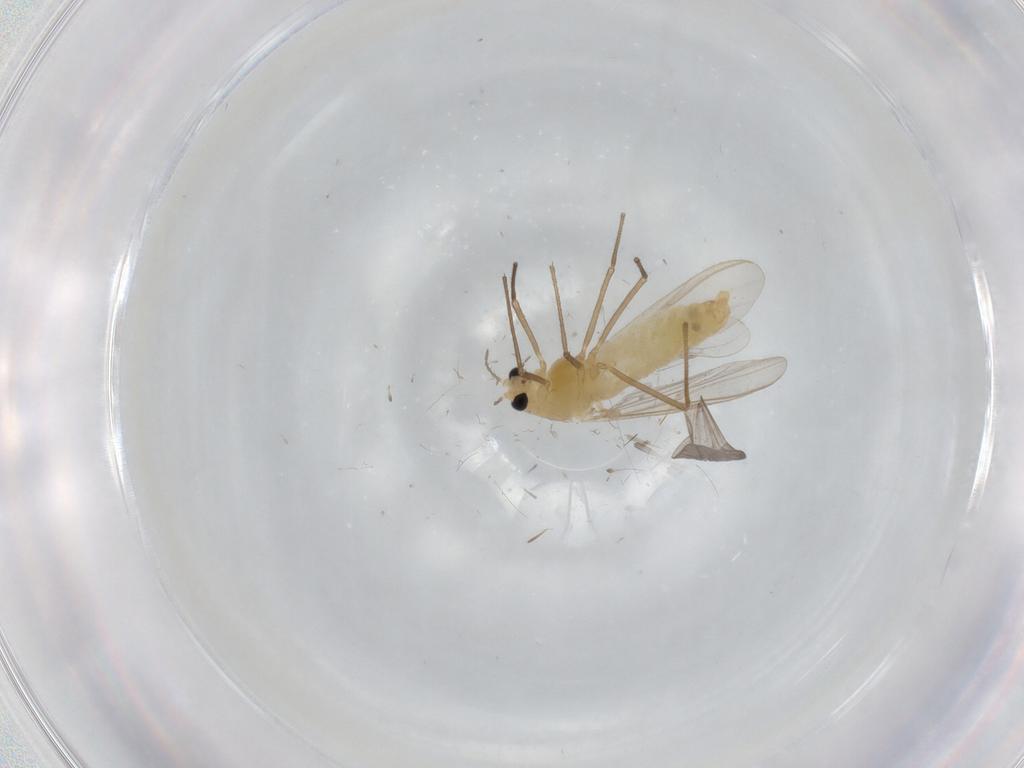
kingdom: Animalia
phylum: Arthropoda
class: Insecta
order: Diptera
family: Chironomidae
